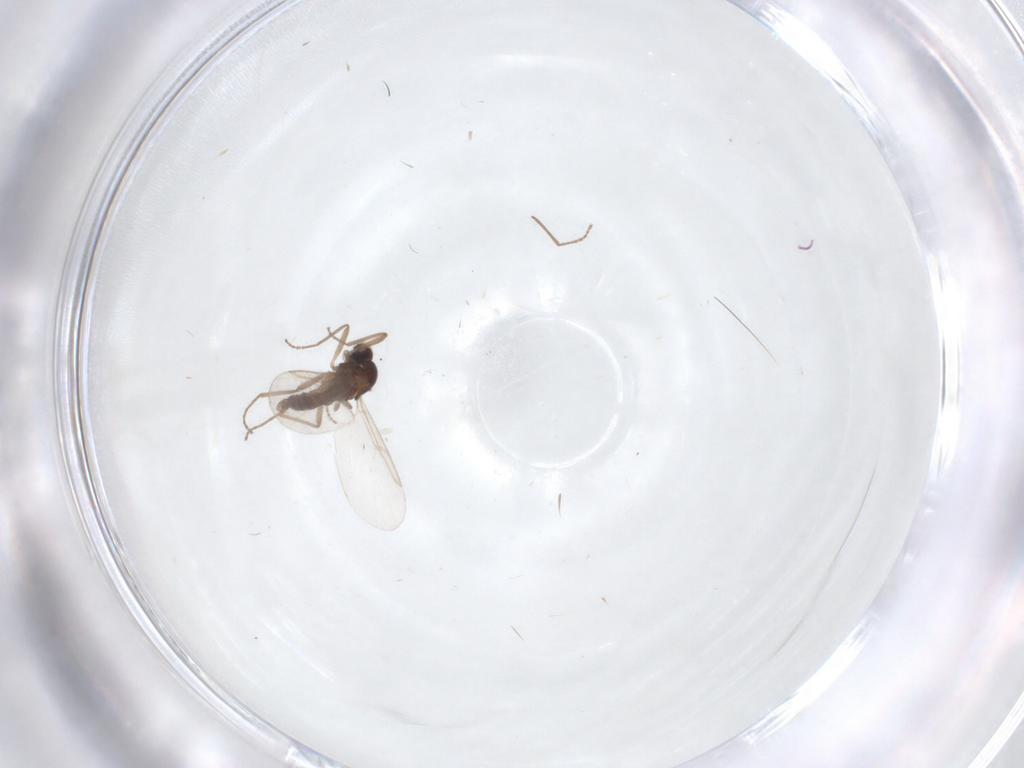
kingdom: Animalia
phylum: Arthropoda
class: Insecta
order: Diptera
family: Cecidomyiidae
